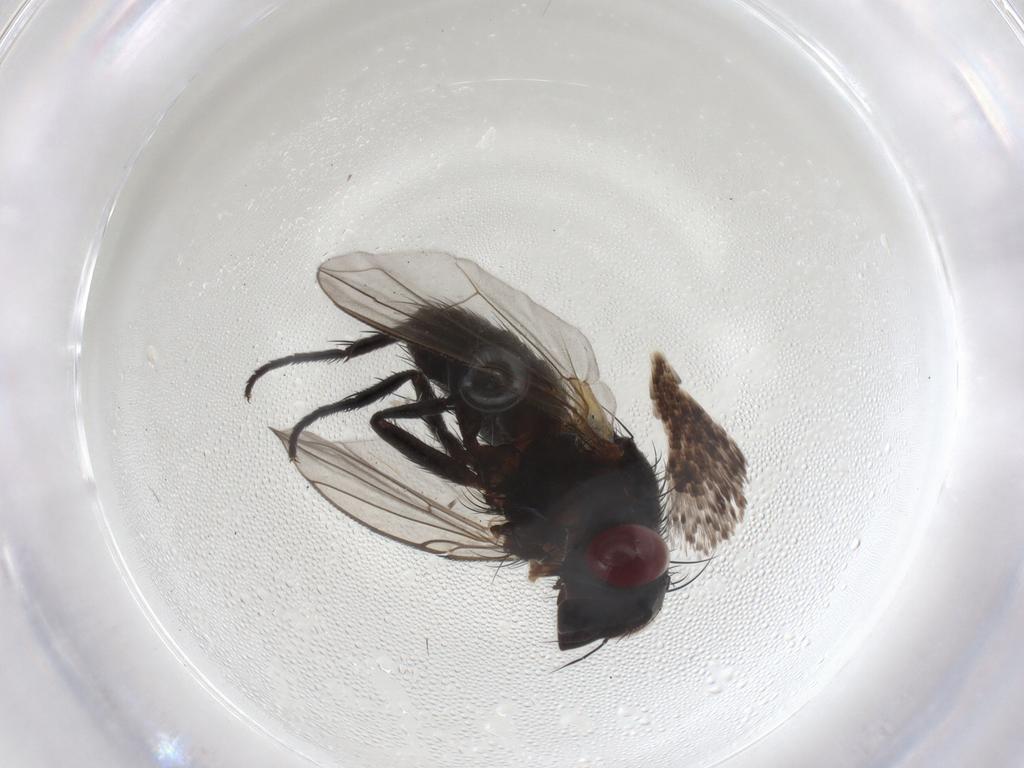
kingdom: Animalia
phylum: Arthropoda
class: Insecta
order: Diptera
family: Tachinidae
